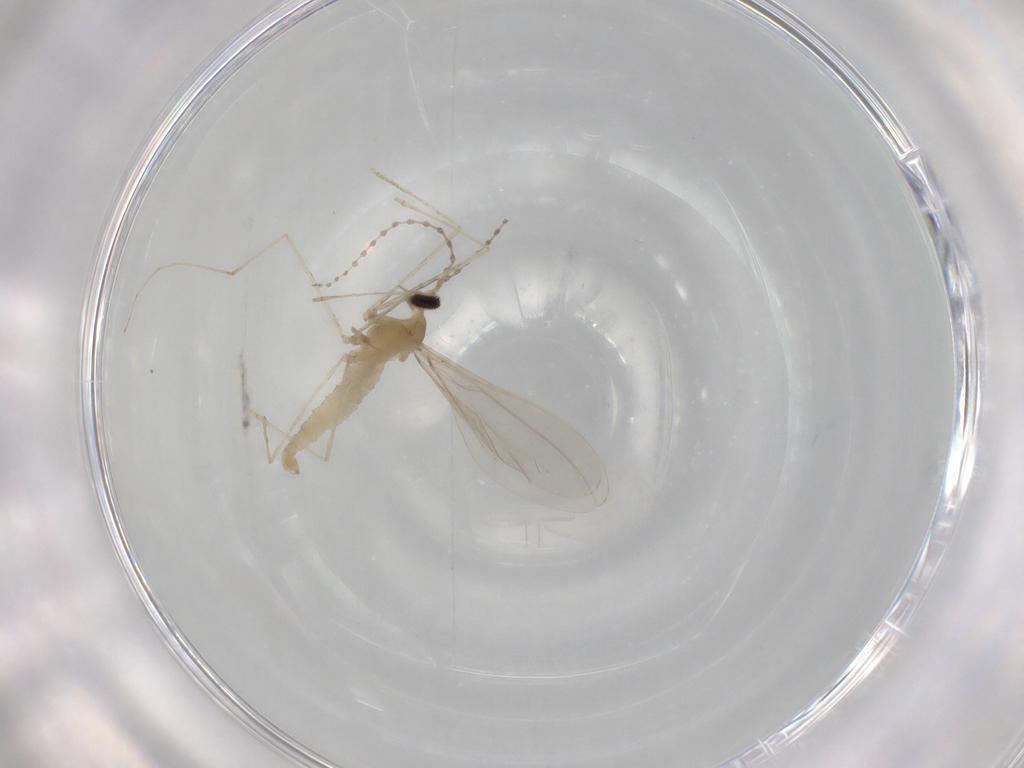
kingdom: Animalia
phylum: Arthropoda
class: Insecta
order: Diptera
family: Cecidomyiidae
